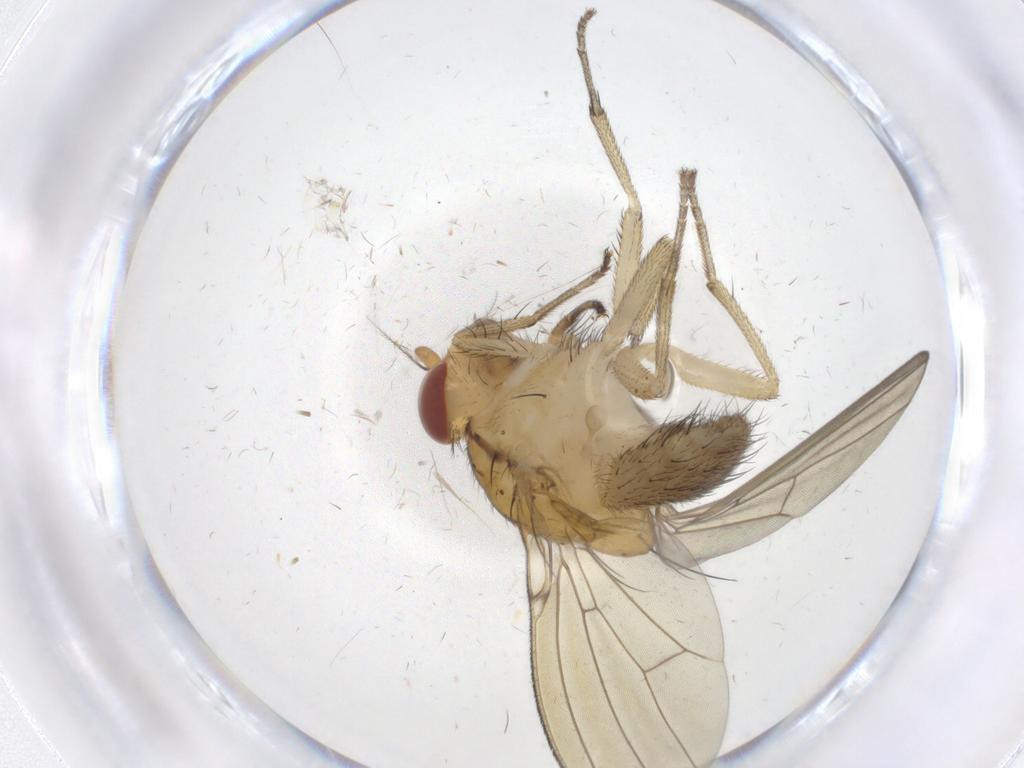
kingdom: Animalia
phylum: Arthropoda
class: Insecta
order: Diptera
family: Lauxaniidae
